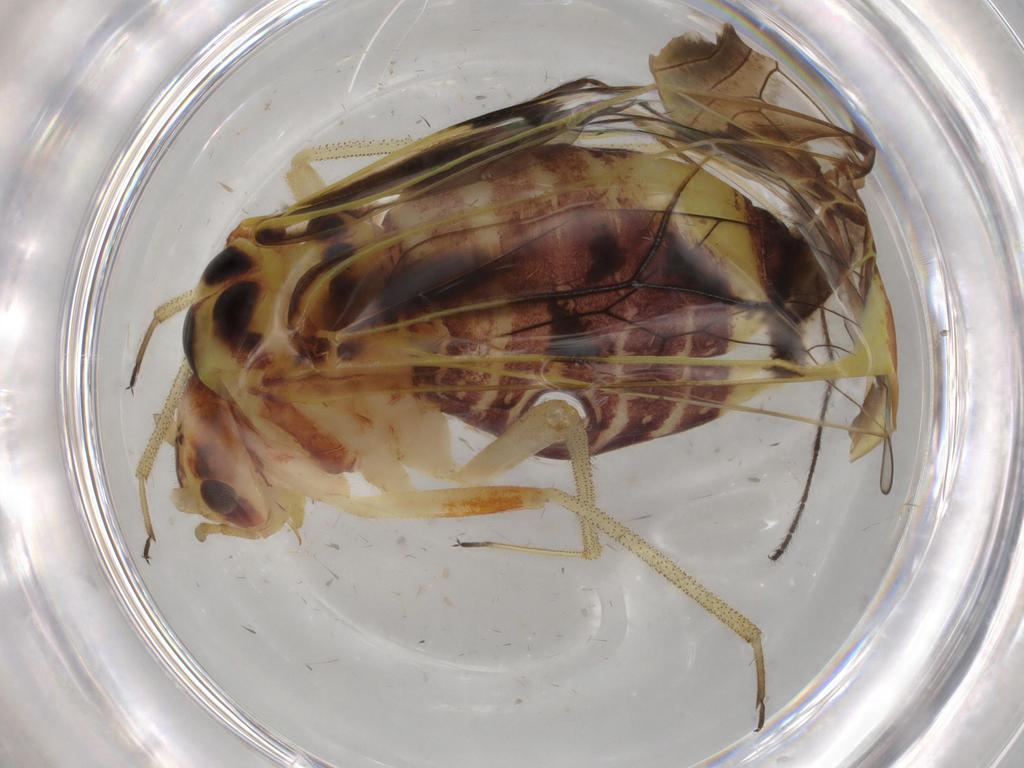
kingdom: Animalia
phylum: Arthropoda
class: Insecta
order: Psocodea
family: Psocidae
